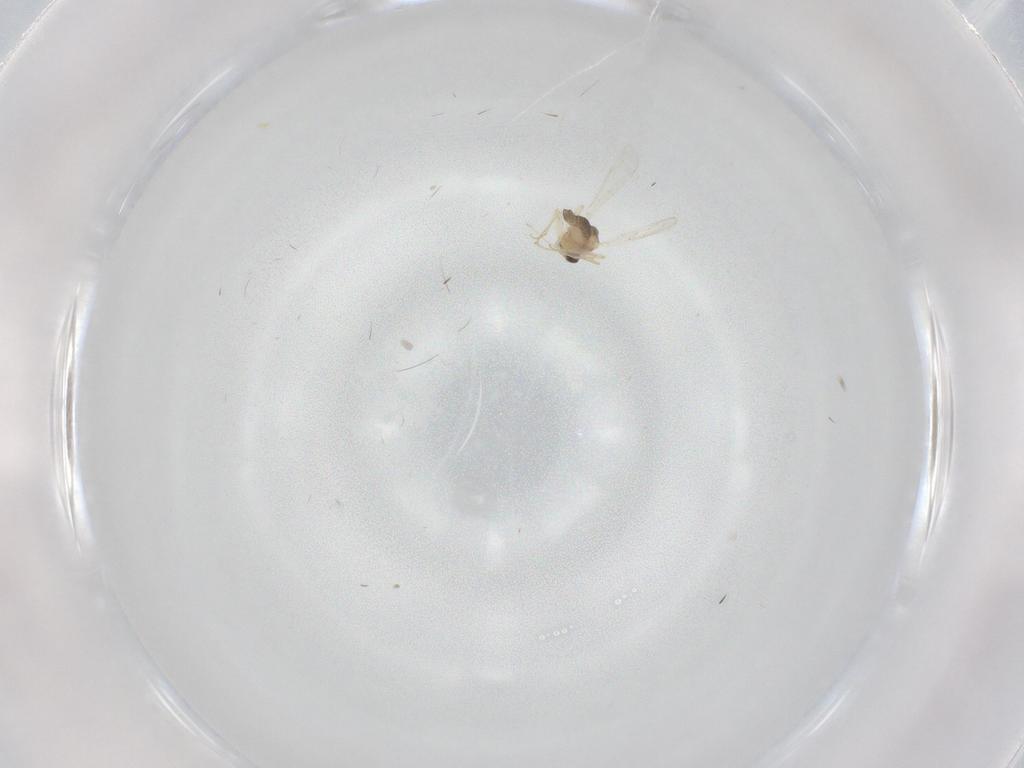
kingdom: Animalia
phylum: Arthropoda
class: Insecta
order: Diptera
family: Chironomidae
